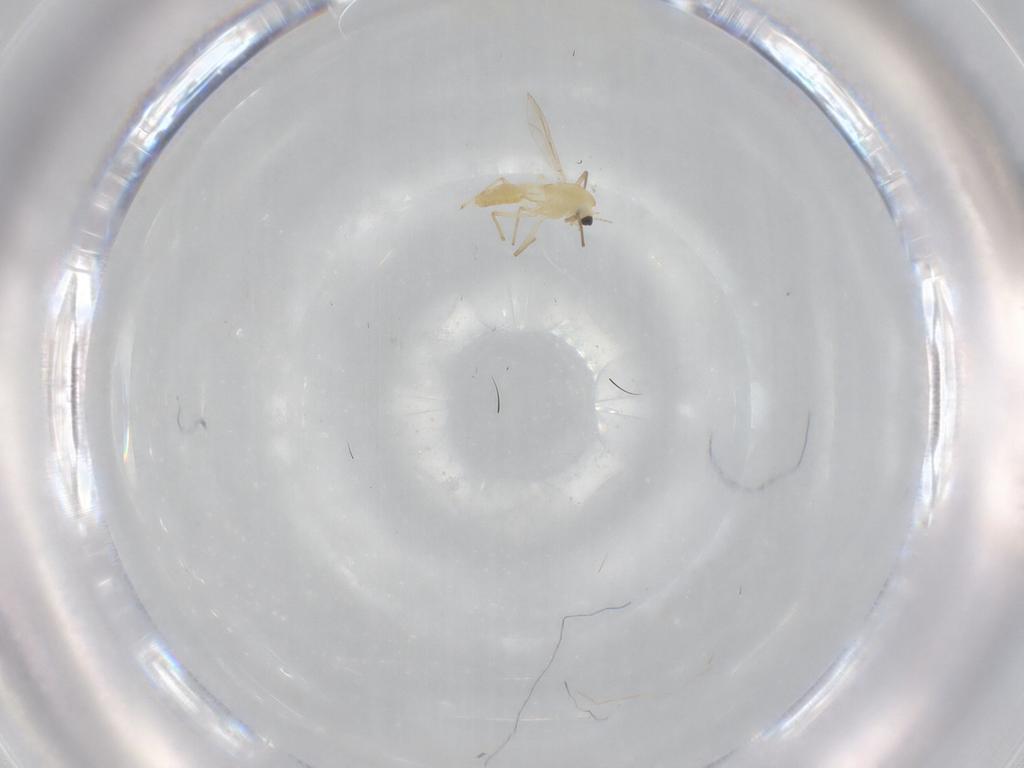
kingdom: Animalia
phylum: Arthropoda
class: Insecta
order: Diptera
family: Chironomidae
